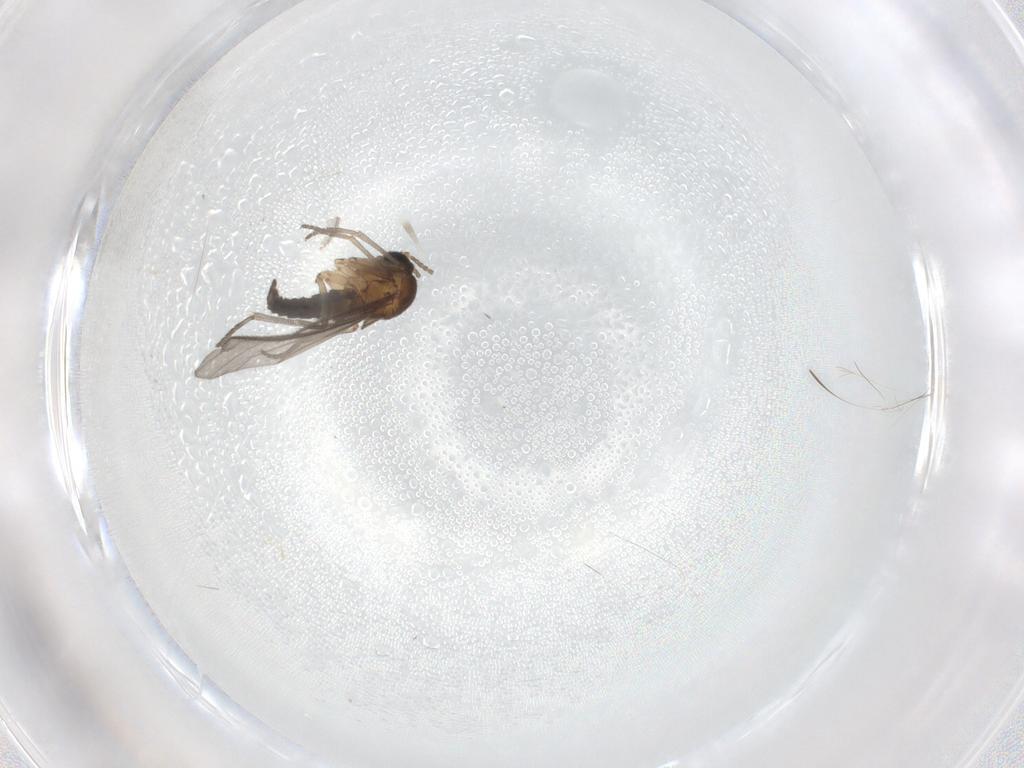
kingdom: Animalia
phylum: Arthropoda
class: Insecta
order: Diptera
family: Sciaridae
